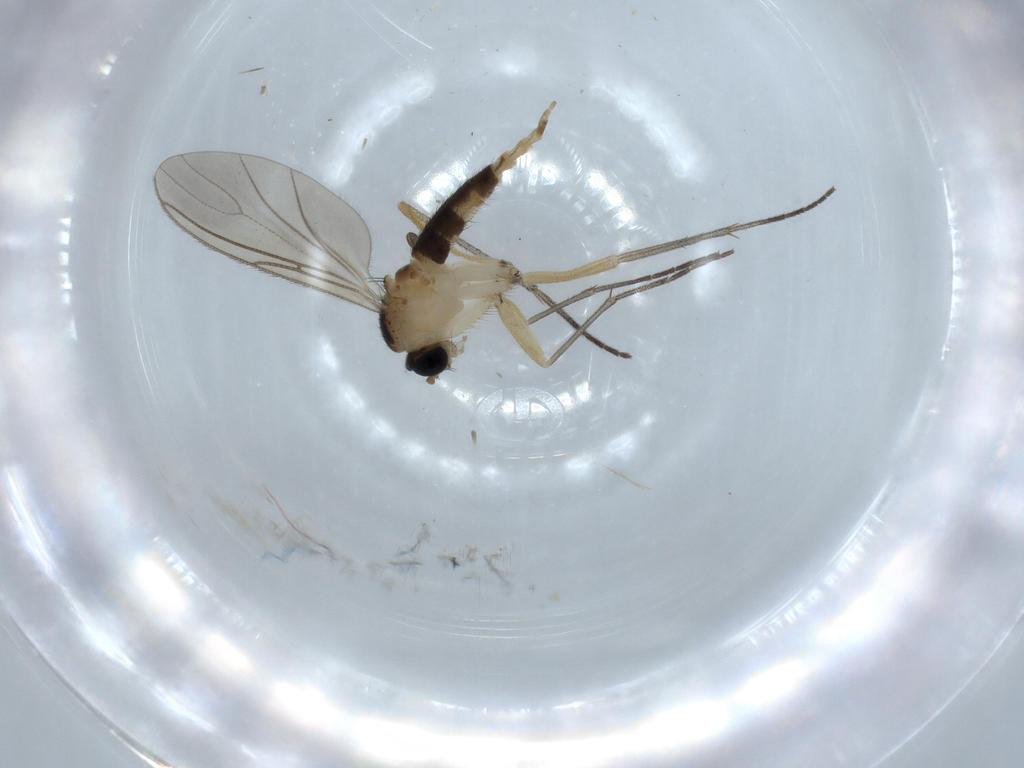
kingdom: Animalia
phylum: Arthropoda
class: Insecta
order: Diptera
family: Sciaridae
